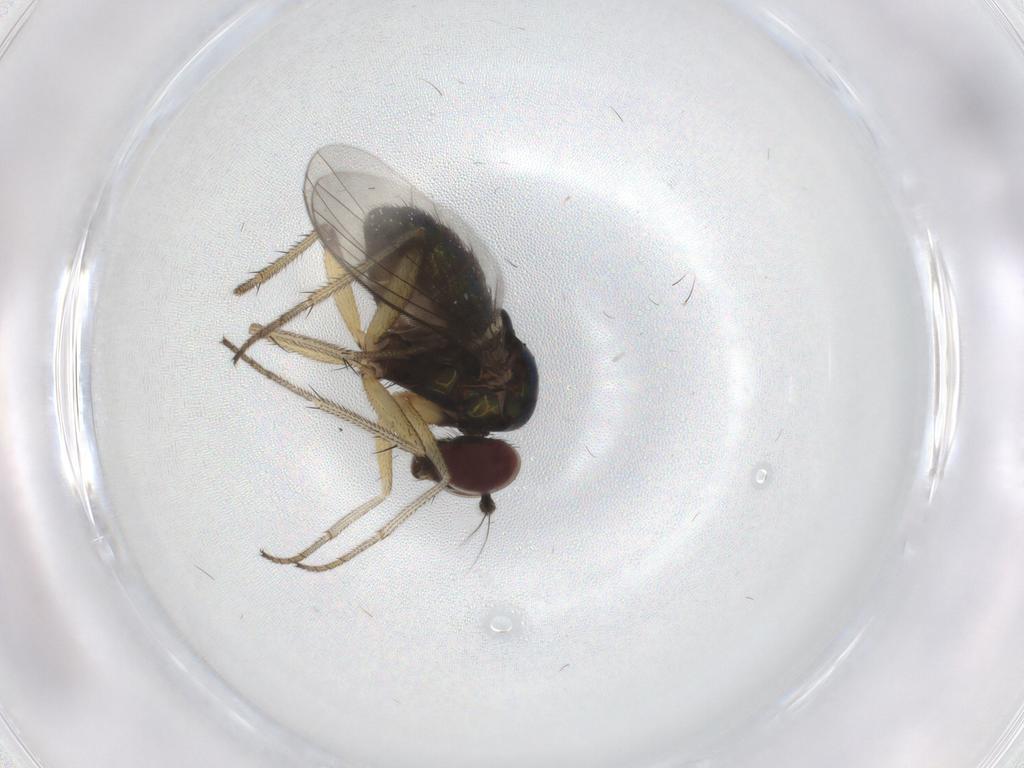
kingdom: Animalia
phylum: Arthropoda
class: Insecta
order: Diptera
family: Dolichopodidae
